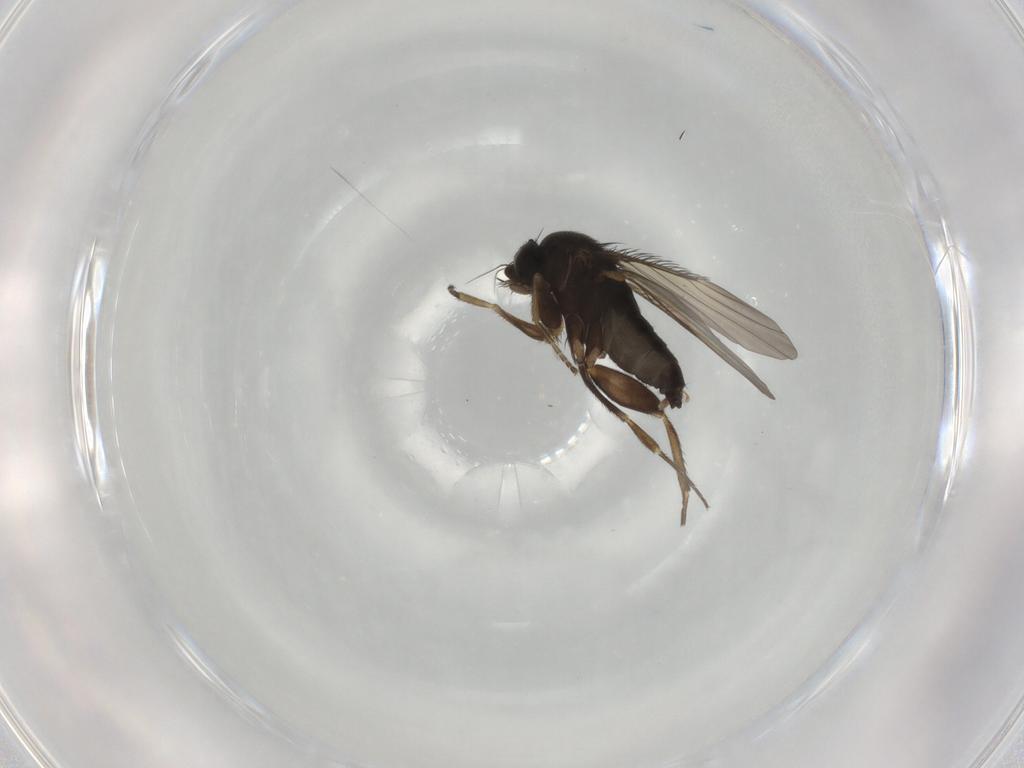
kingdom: Animalia
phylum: Arthropoda
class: Insecta
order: Diptera
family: Phoridae
